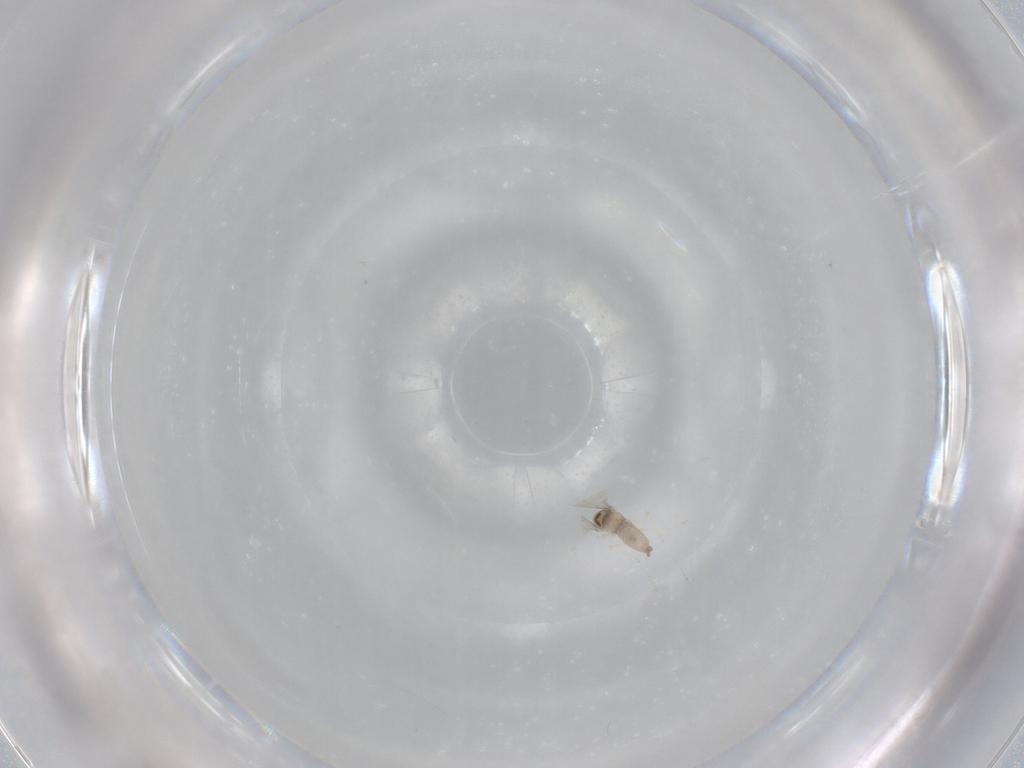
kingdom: Animalia
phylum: Arthropoda
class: Insecta
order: Diptera
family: Cecidomyiidae
